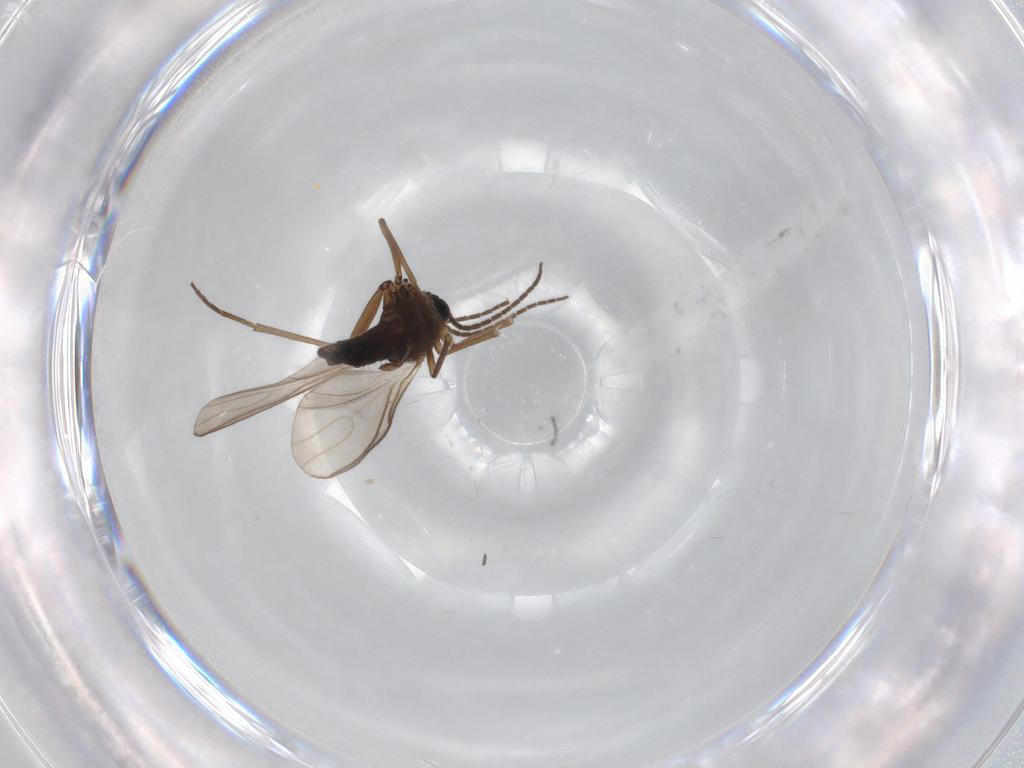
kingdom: Animalia
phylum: Arthropoda
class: Insecta
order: Diptera
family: Sciaridae
